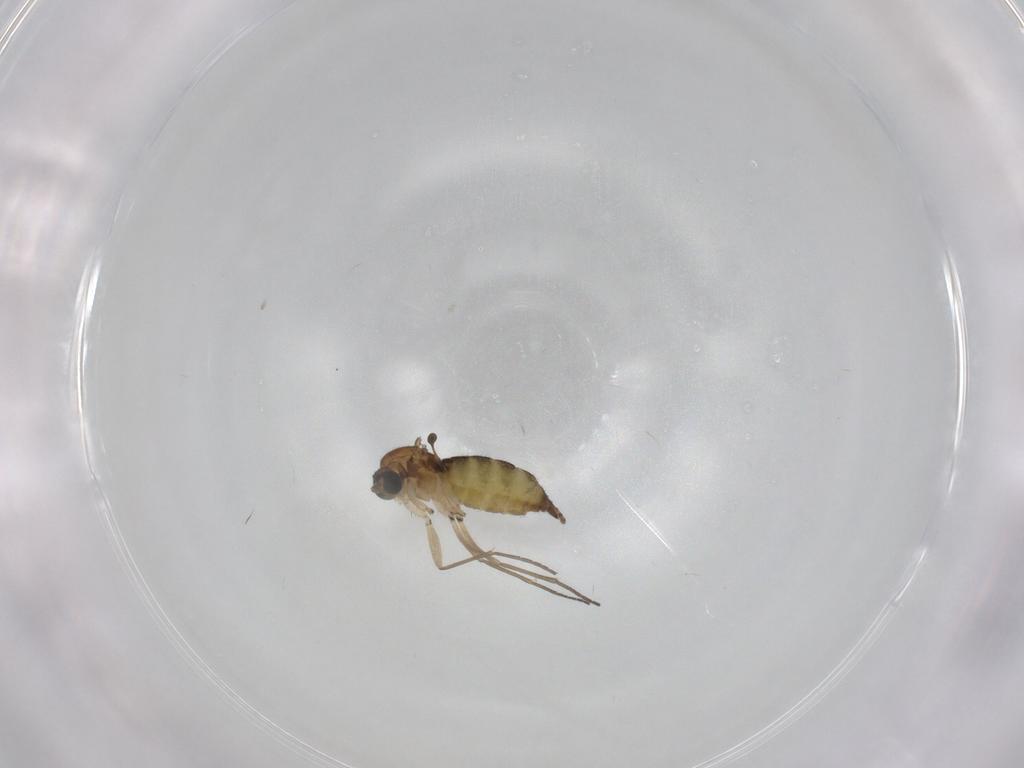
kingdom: Animalia
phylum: Arthropoda
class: Insecta
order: Diptera
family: Sciaridae
